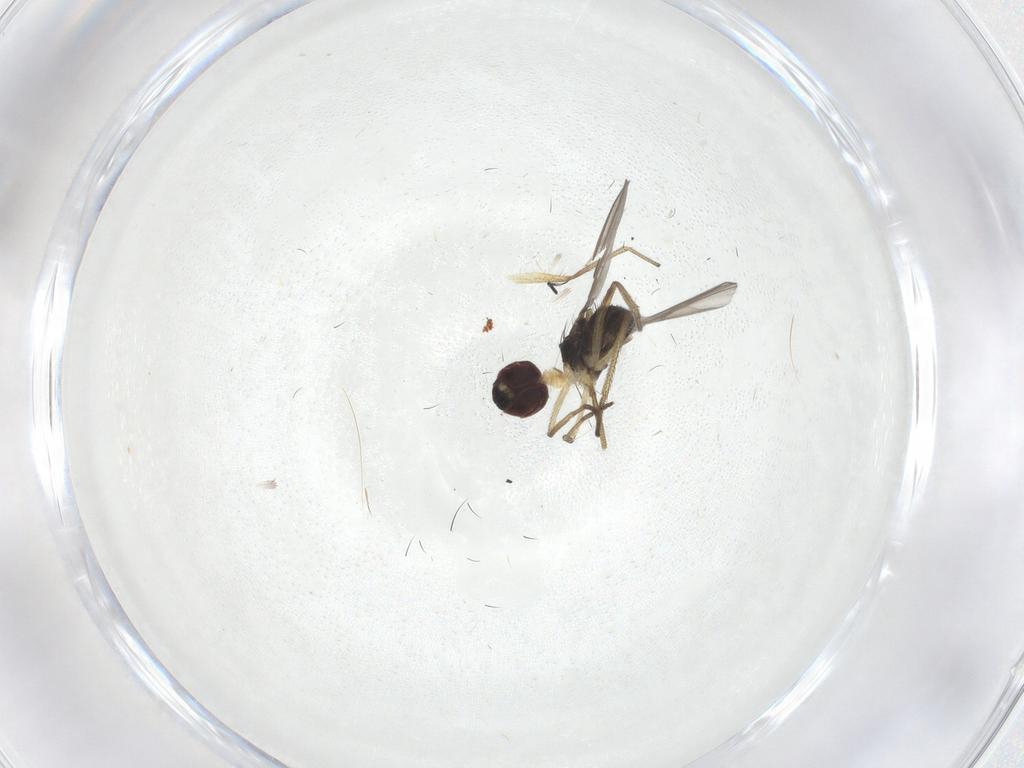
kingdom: Animalia
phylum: Arthropoda
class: Insecta
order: Diptera
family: Dolichopodidae
